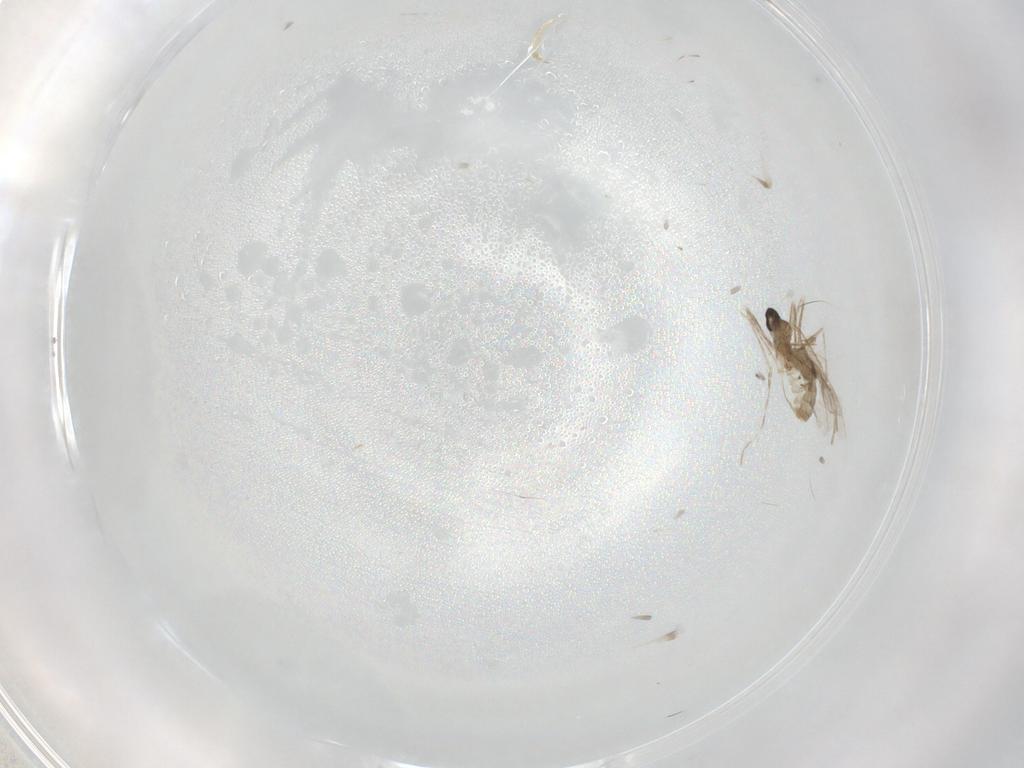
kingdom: Animalia
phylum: Arthropoda
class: Insecta
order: Diptera
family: Cecidomyiidae
